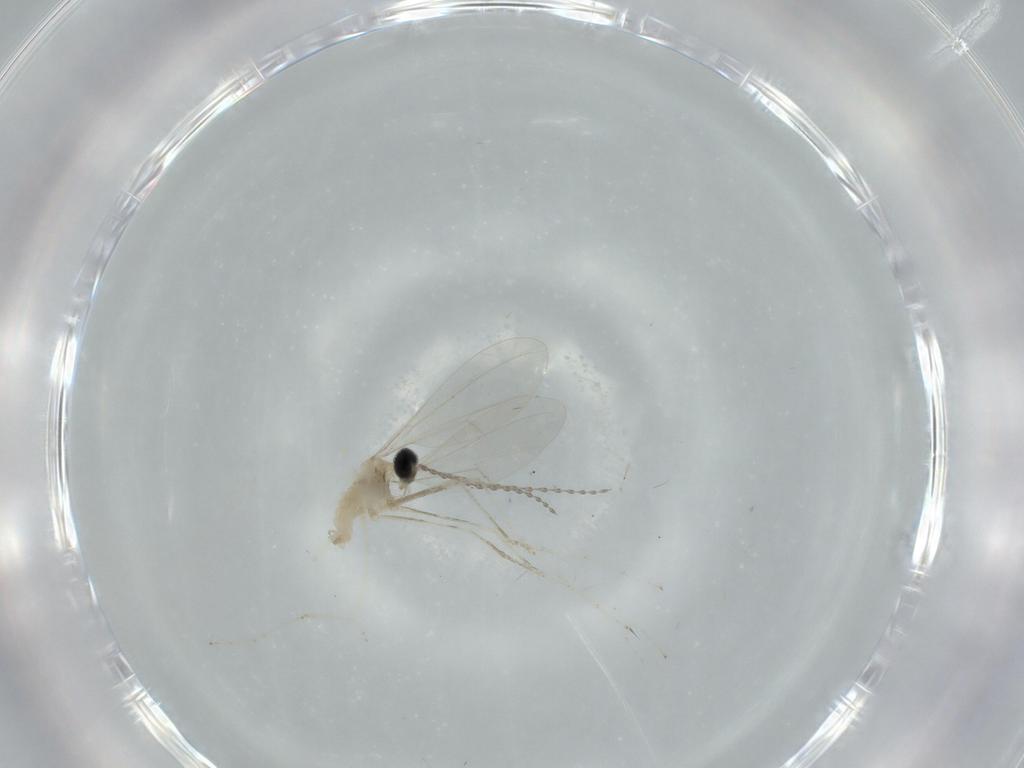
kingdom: Animalia
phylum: Arthropoda
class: Insecta
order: Diptera
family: Cecidomyiidae
